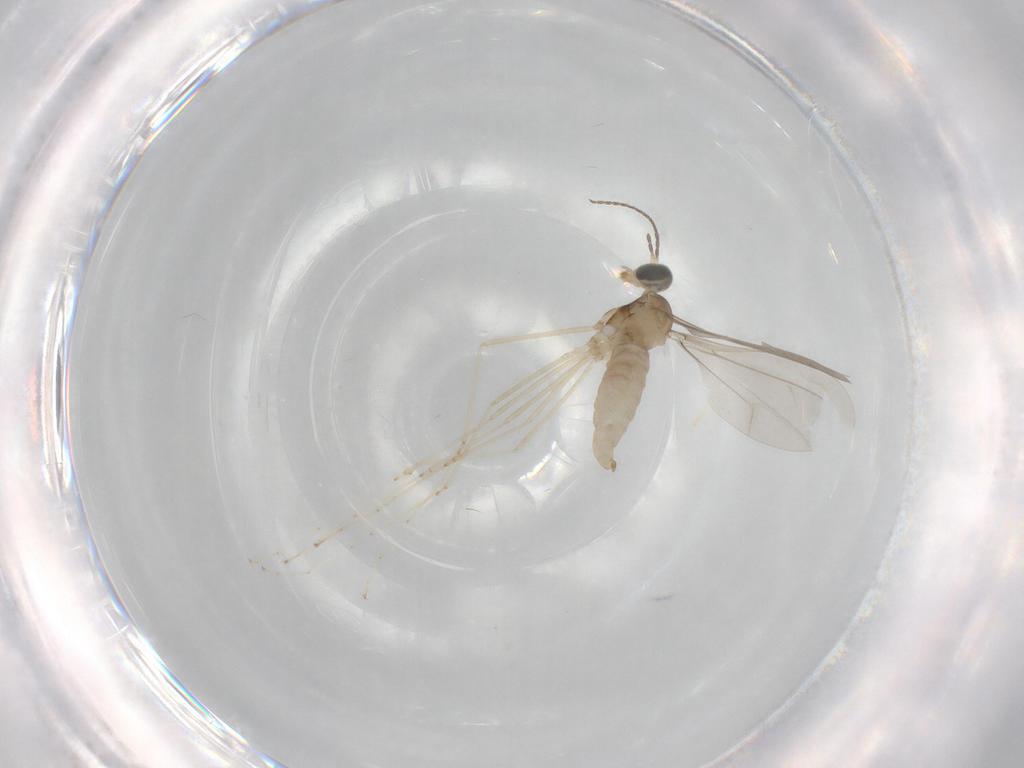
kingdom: Animalia
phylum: Arthropoda
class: Insecta
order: Diptera
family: Cecidomyiidae
